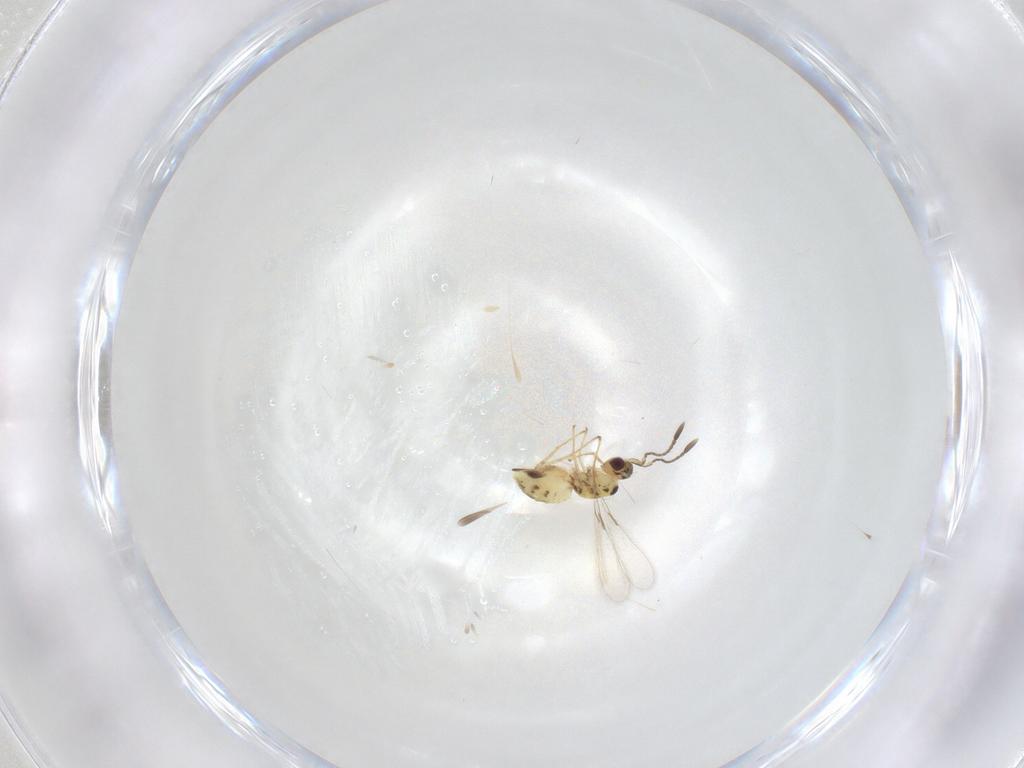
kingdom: Animalia
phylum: Arthropoda
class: Insecta
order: Hymenoptera
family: Mymaridae
